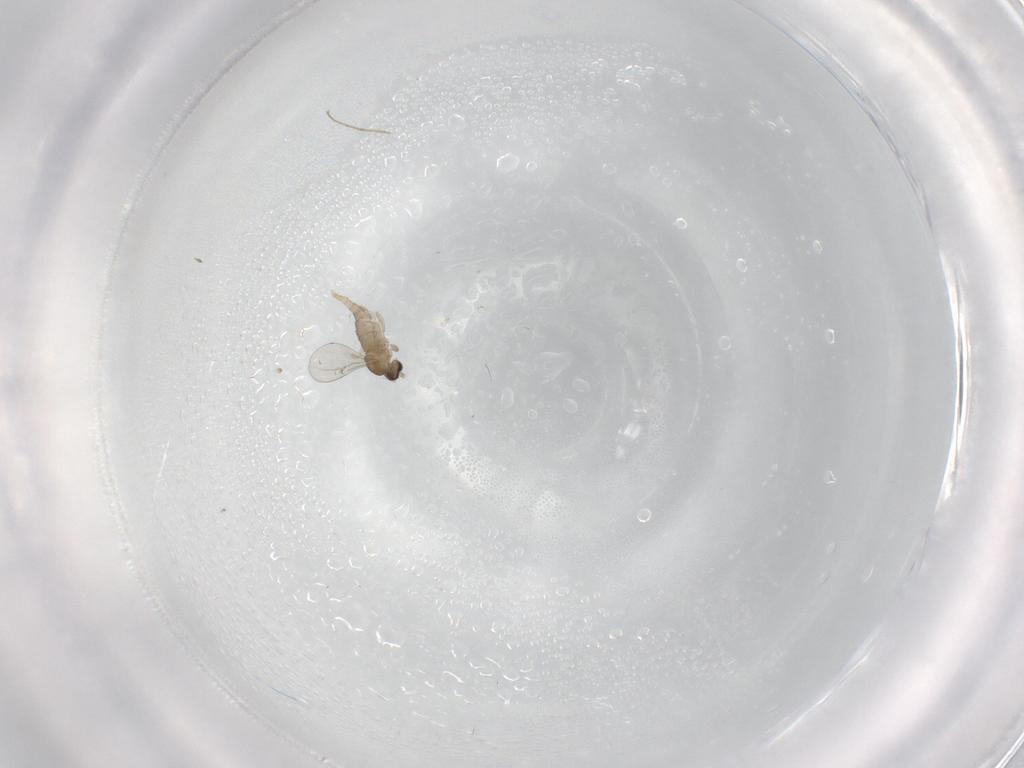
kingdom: Animalia
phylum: Arthropoda
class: Insecta
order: Diptera
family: Cecidomyiidae
